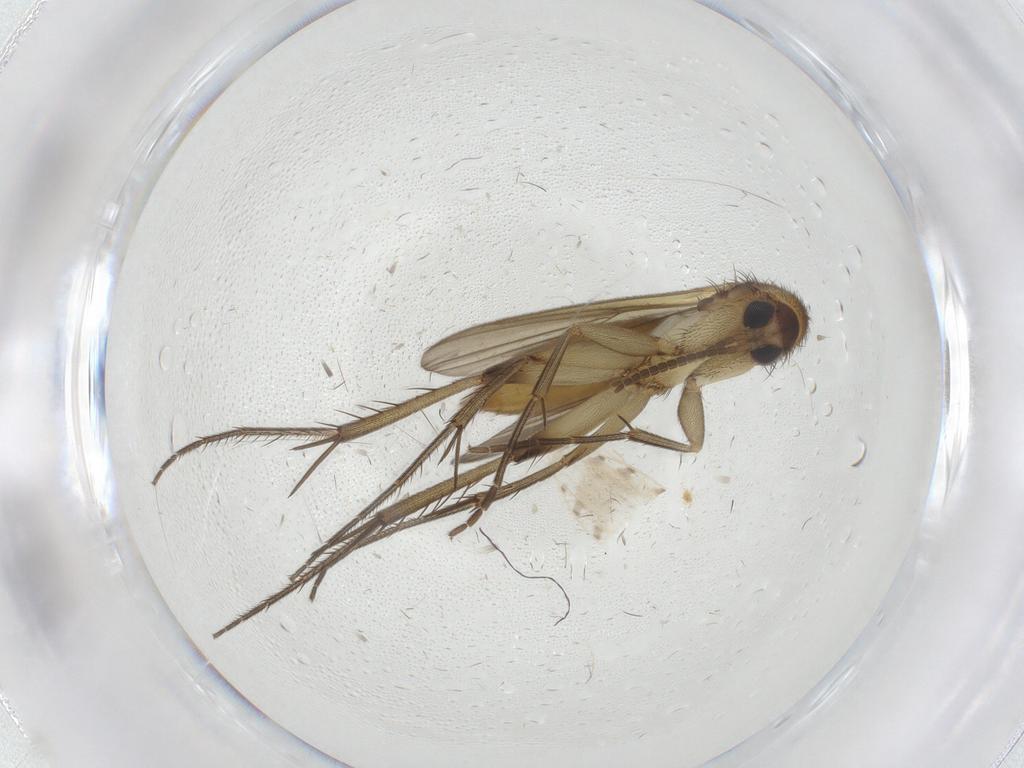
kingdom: Animalia
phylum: Arthropoda
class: Insecta
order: Diptera
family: Mycetophilidae
